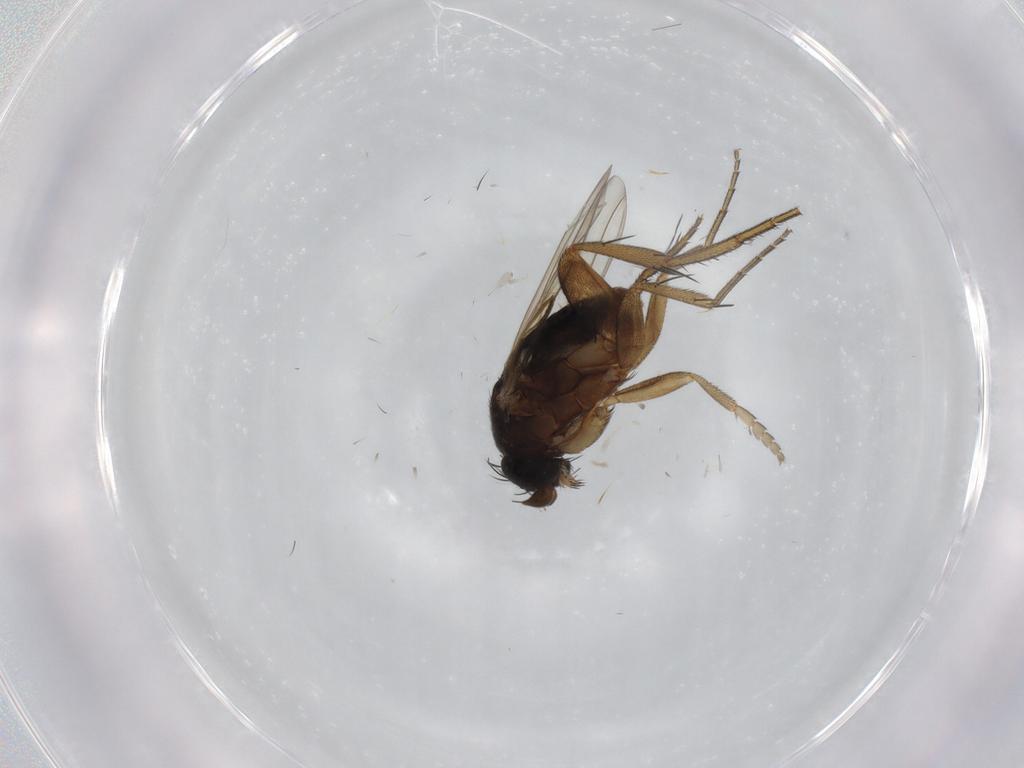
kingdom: Animalia
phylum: Arthropoda
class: Insecta
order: Diptera
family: Phoridae
